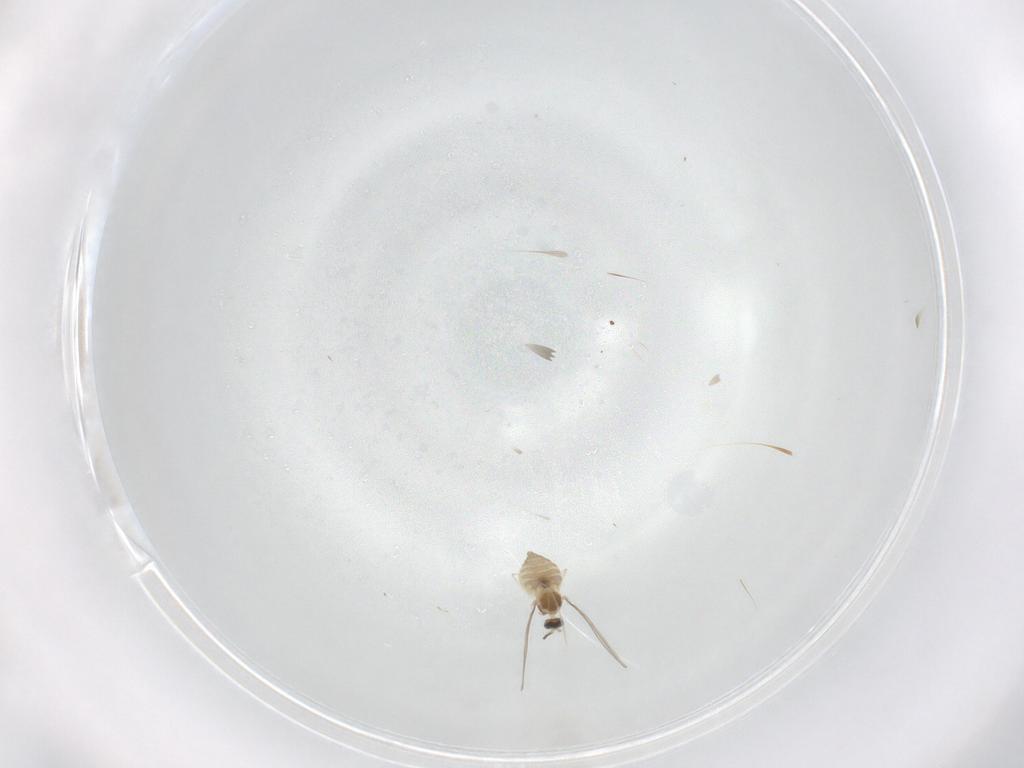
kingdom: Animalia
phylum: Arthropoda
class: Insecta
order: Diptera
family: Cecidomyiidae
